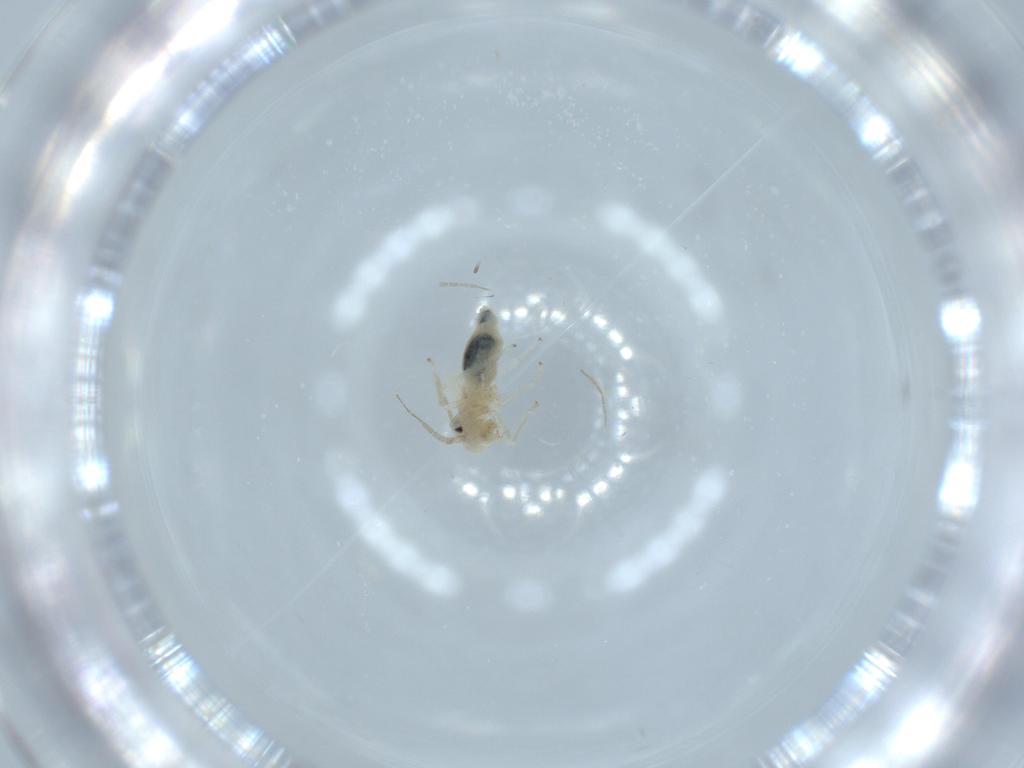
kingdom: Animalia
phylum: Arthropoda
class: Insecta
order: Psocodea
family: Caeciliusidae
